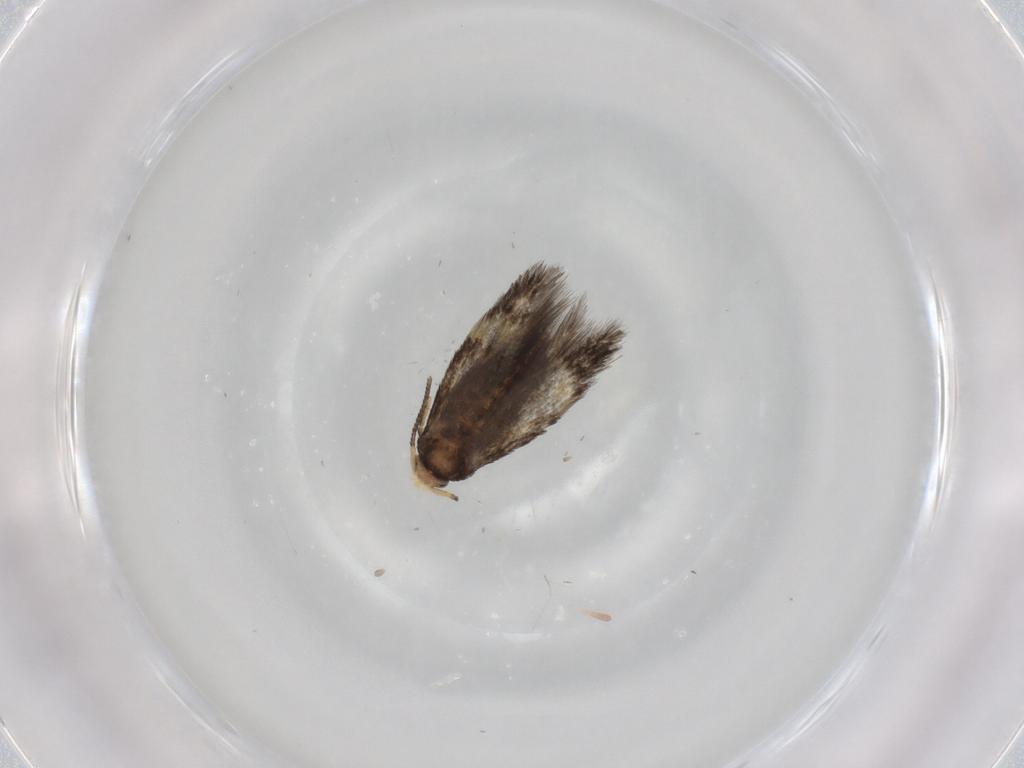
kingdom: Animalia
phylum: Arthropoda
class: Insecta
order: Lepidoptera
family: Nepticulidae
